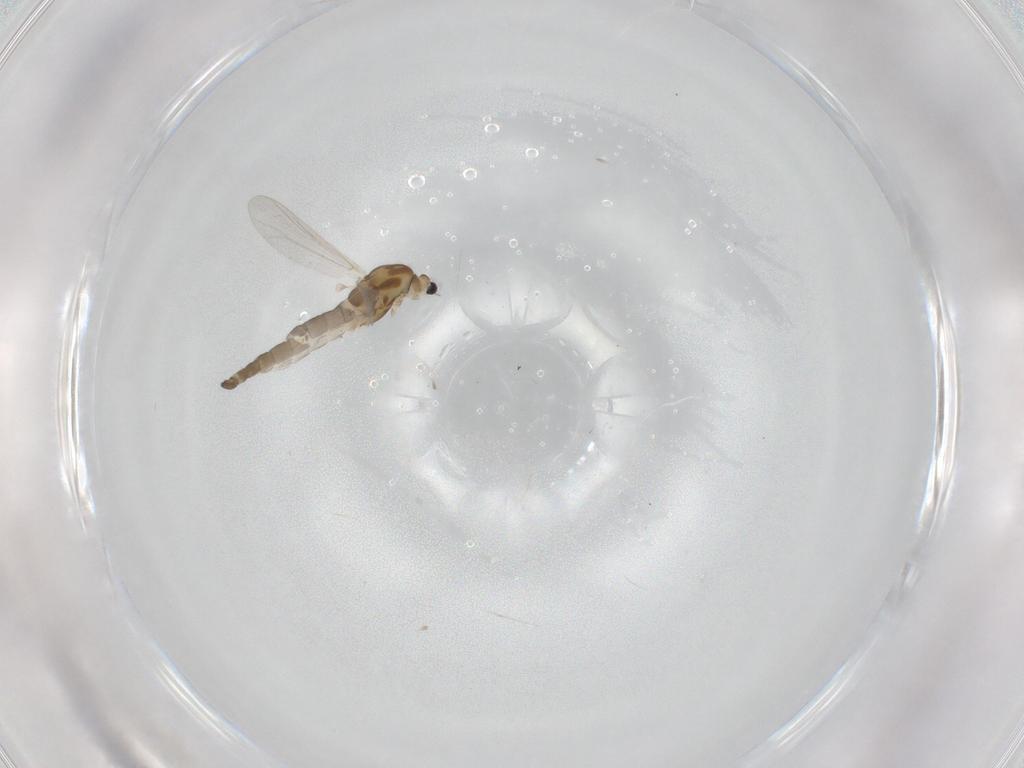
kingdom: Animalia
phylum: Arthropoda
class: Insecta
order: Diptera
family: Chironomidae
